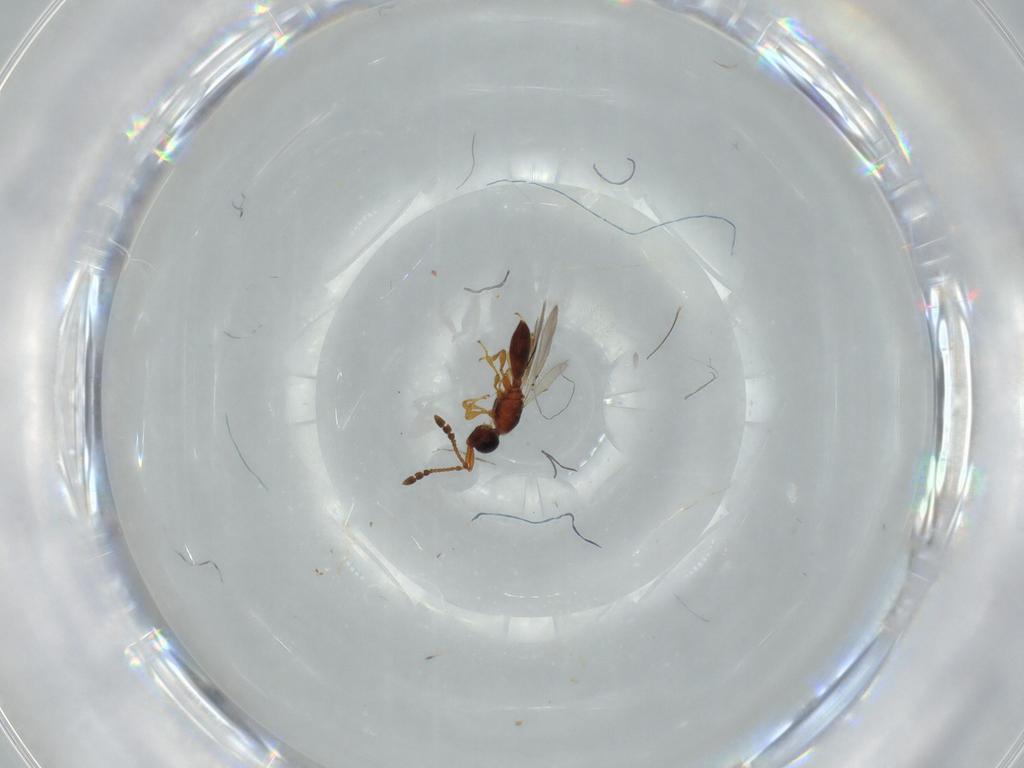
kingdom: Animalia
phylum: Arthropoda
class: Insecta
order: Hymenoptera
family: Diapriidae
